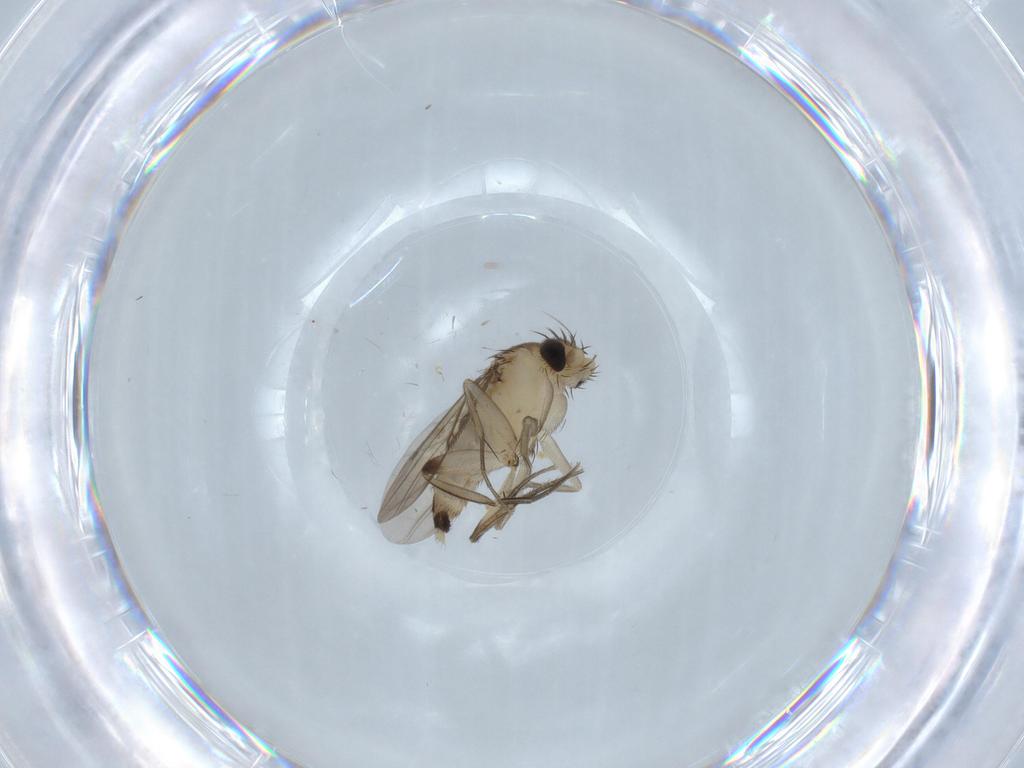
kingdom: Animalia
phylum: Arthropoda
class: Insecta
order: Diptera
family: Phoridae
